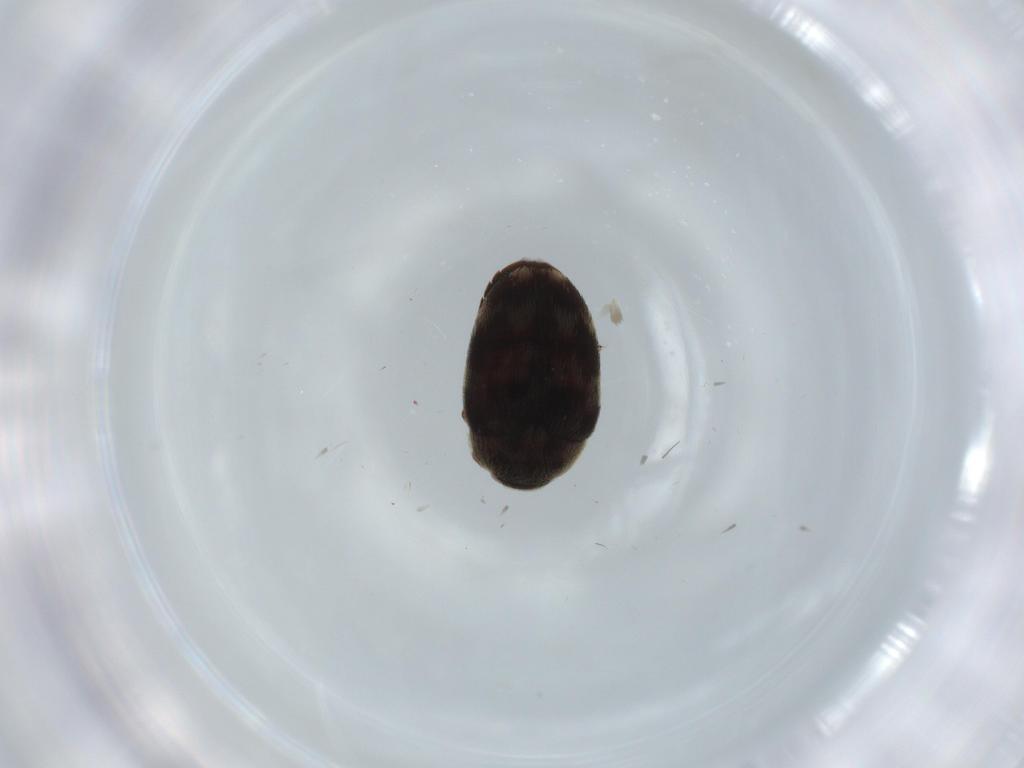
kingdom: Animalia
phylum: Arthropoda
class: Insecta
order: Coleoptera
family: Dermestidae
